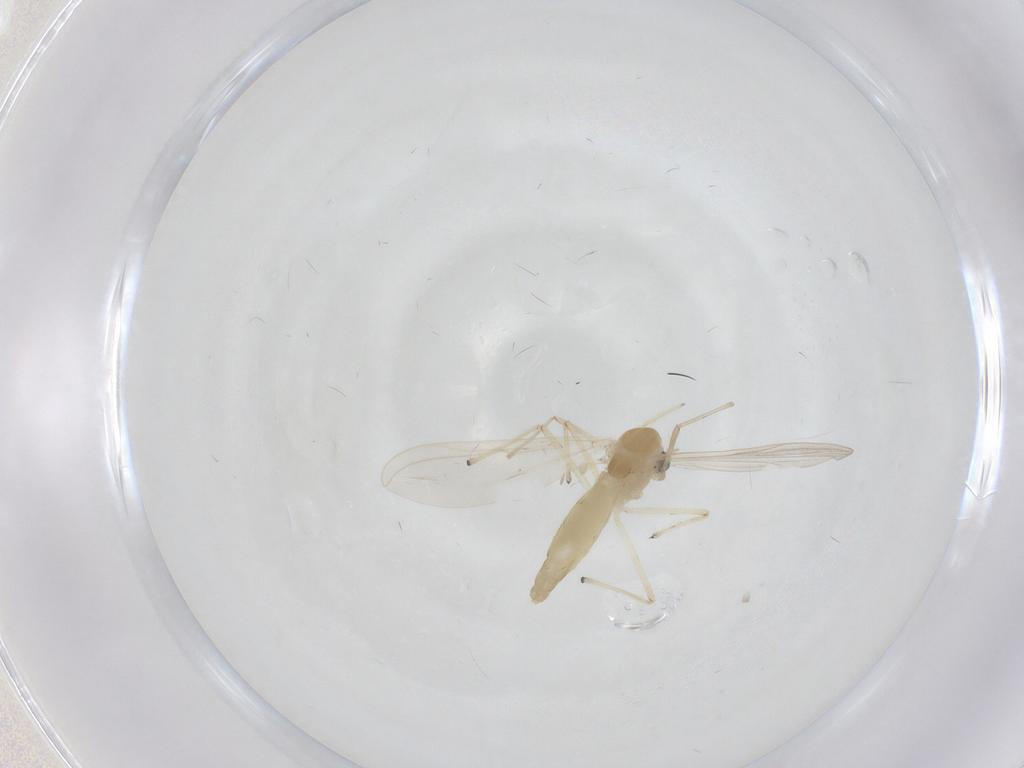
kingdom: Animalia
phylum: Arthropoda
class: Insecta
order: Diptera
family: Chironomidae
